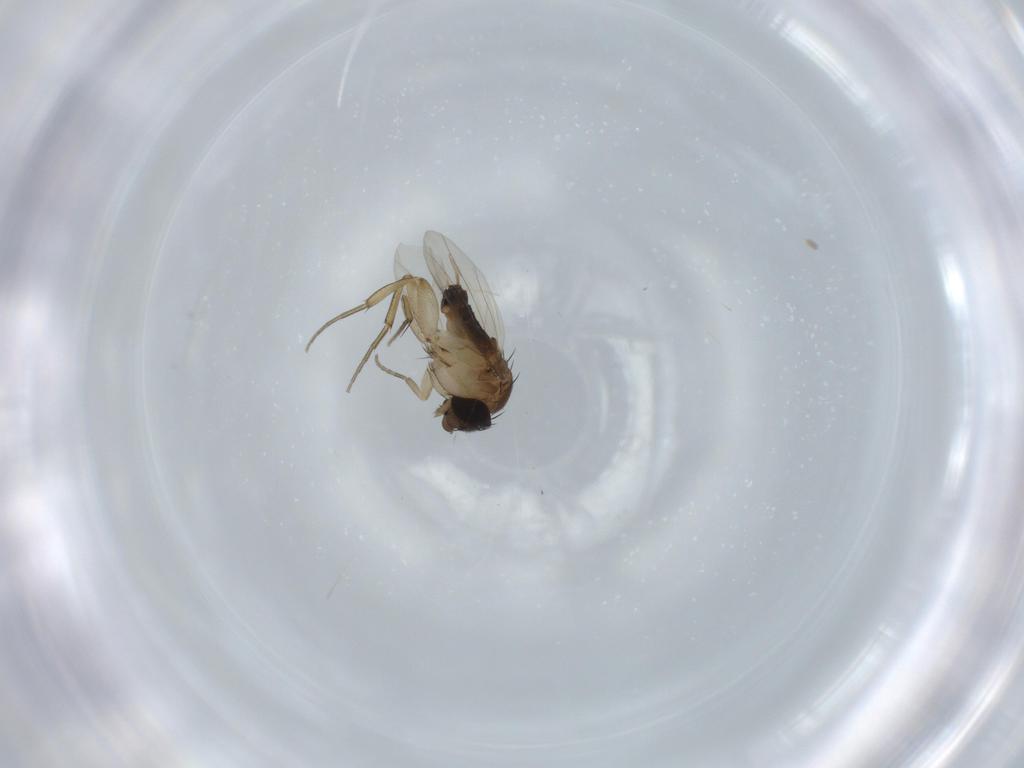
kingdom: Animalia
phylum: Arthropoda
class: Insecta
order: Diptera
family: Phoridae
